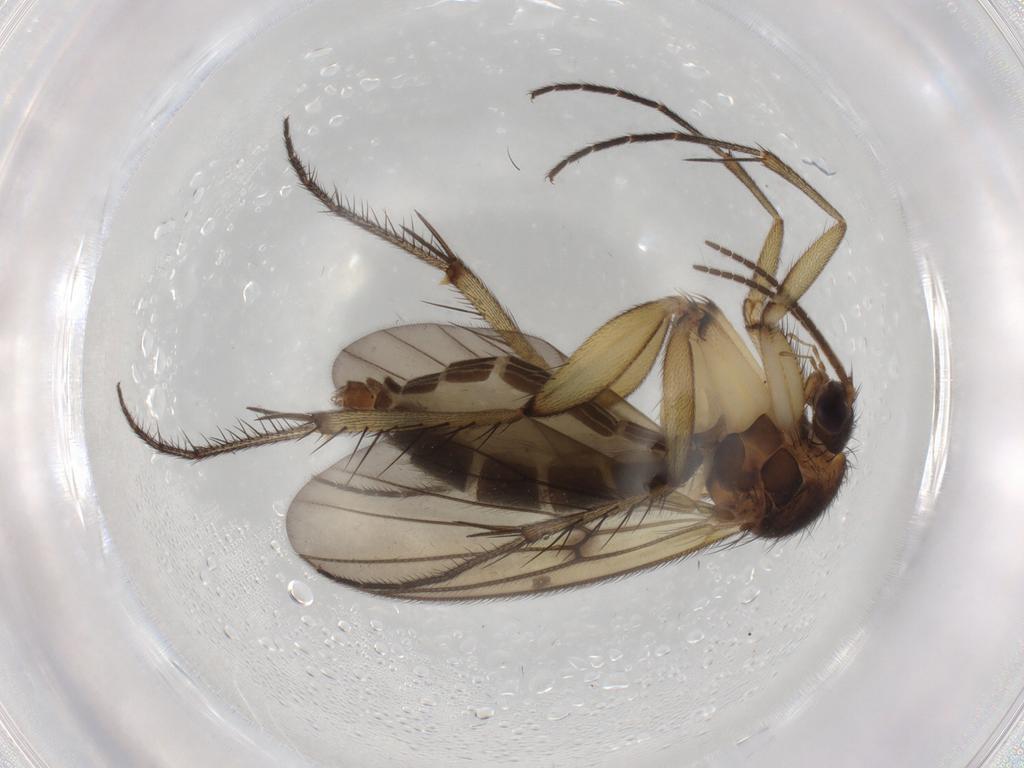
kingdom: Animalia
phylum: Arthropoda
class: Insecta
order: Diptera
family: Mycetophilidae
